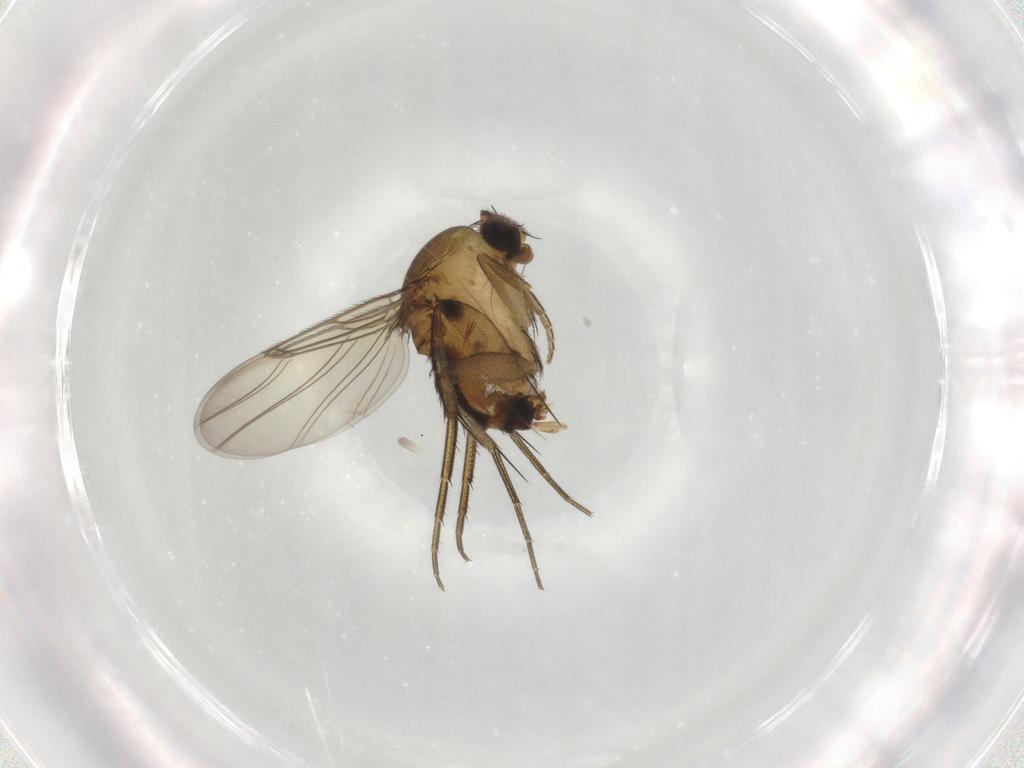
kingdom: Animalia
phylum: Arthropoda
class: Insecta
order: Diptera
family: Phoridae
